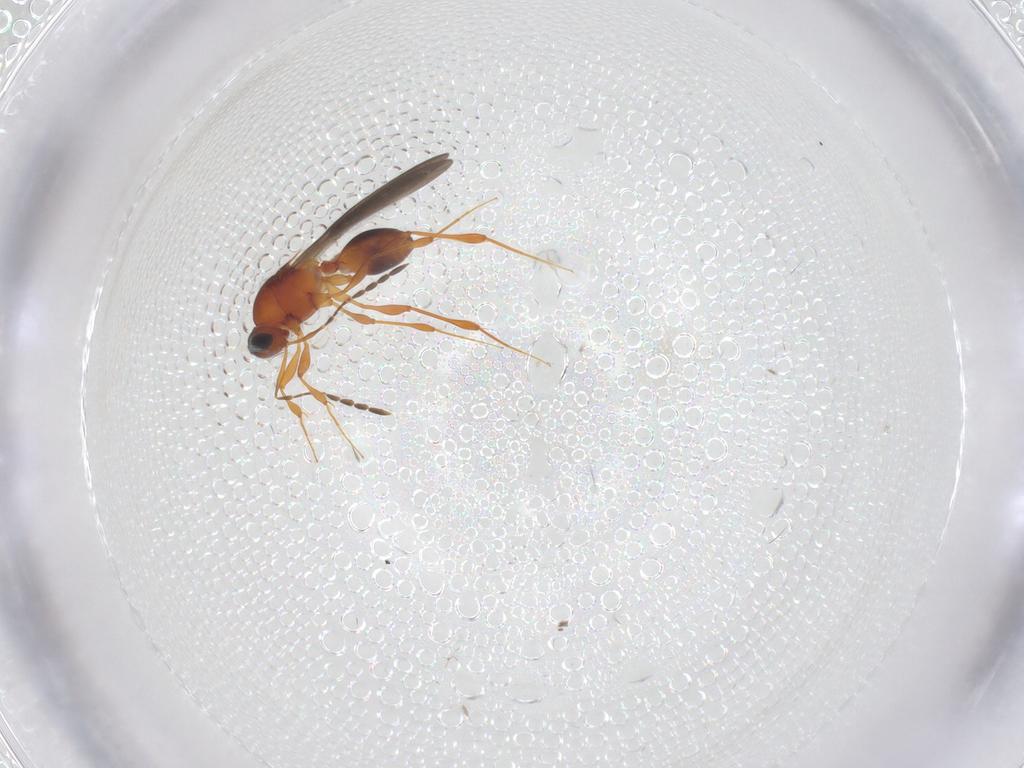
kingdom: Animalia
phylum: Arthropoda
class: Insecta
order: Hymenoptera
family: Platygastridae
